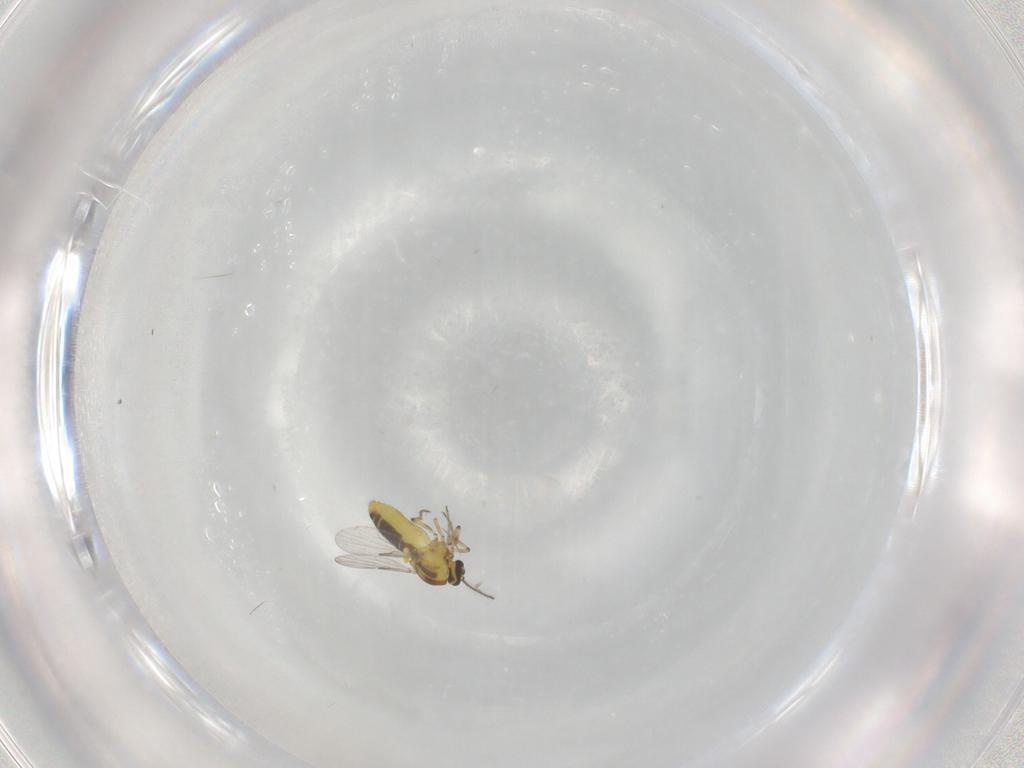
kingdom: Animalia
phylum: Arthropoda
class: Insecta
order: Diptera
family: Ceratopogonidae
